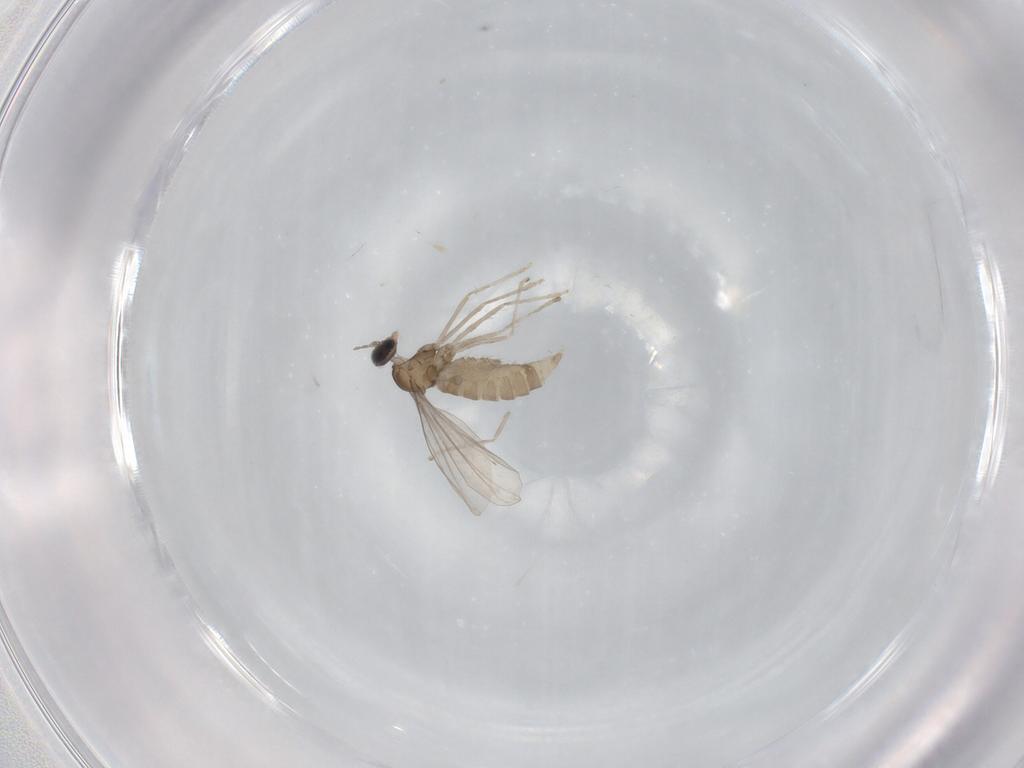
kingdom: Animalia
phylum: Arthropoda
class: Insecta
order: Diptera
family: Cecidomyiidae
